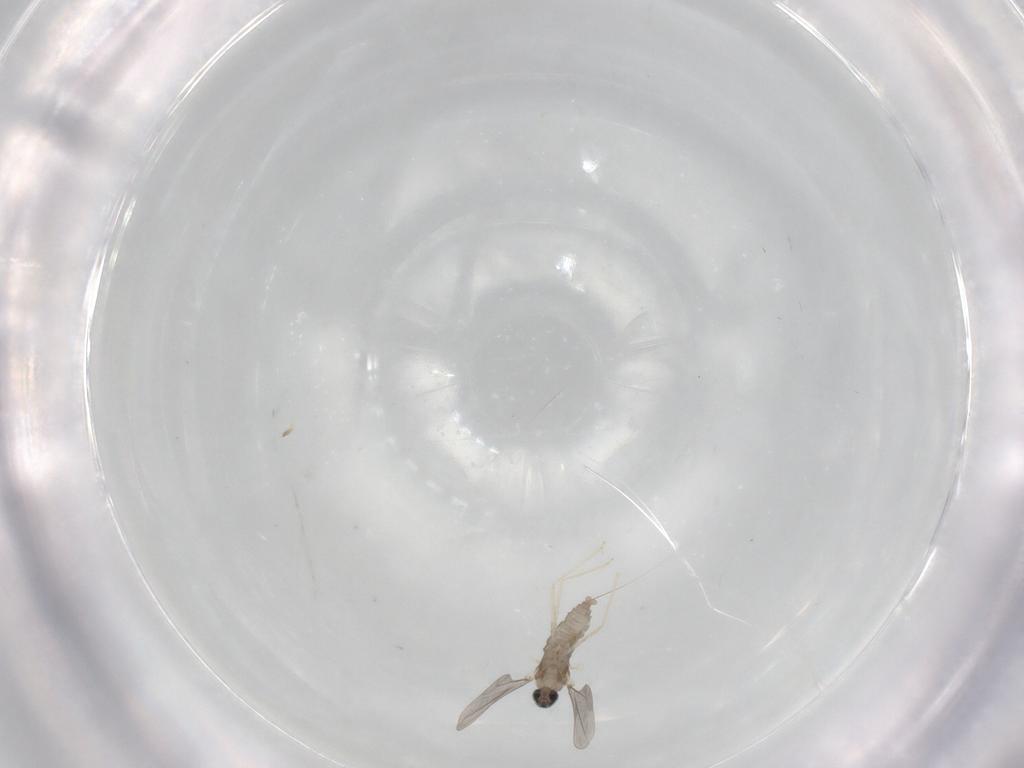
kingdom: Animalia
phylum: Arthropoda
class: Insecta
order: Diptera
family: Cecidomyiidae
